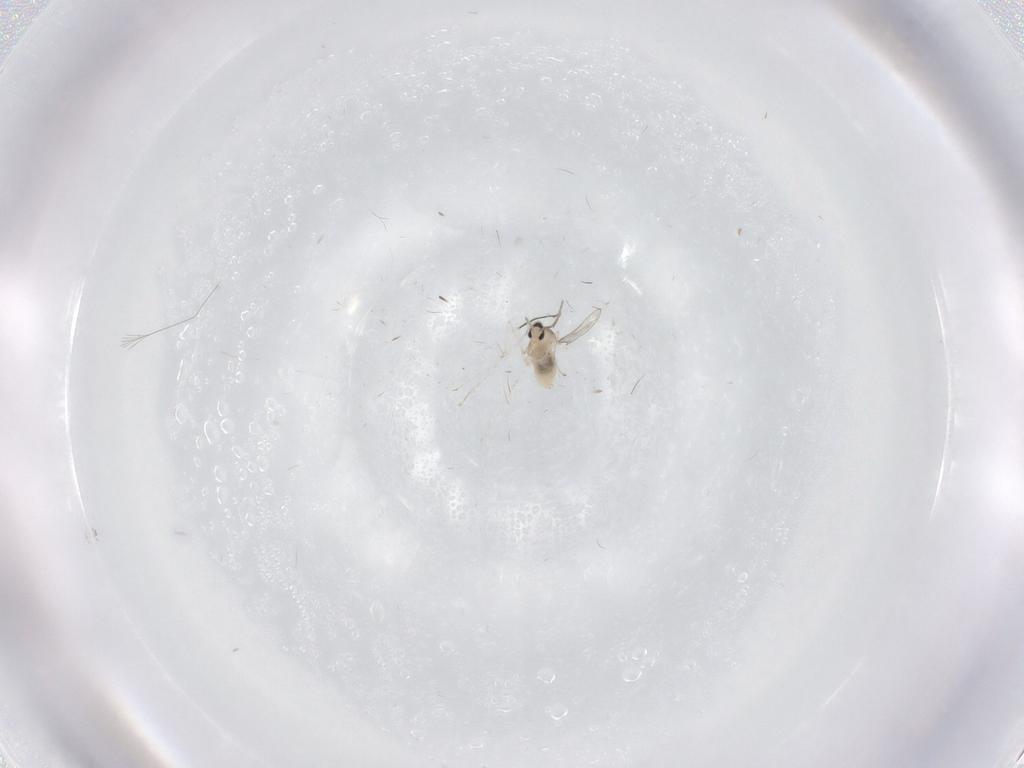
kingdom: Animalia
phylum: Arthropoda
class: Insecta
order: Diptera
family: Cecidomyiidae
